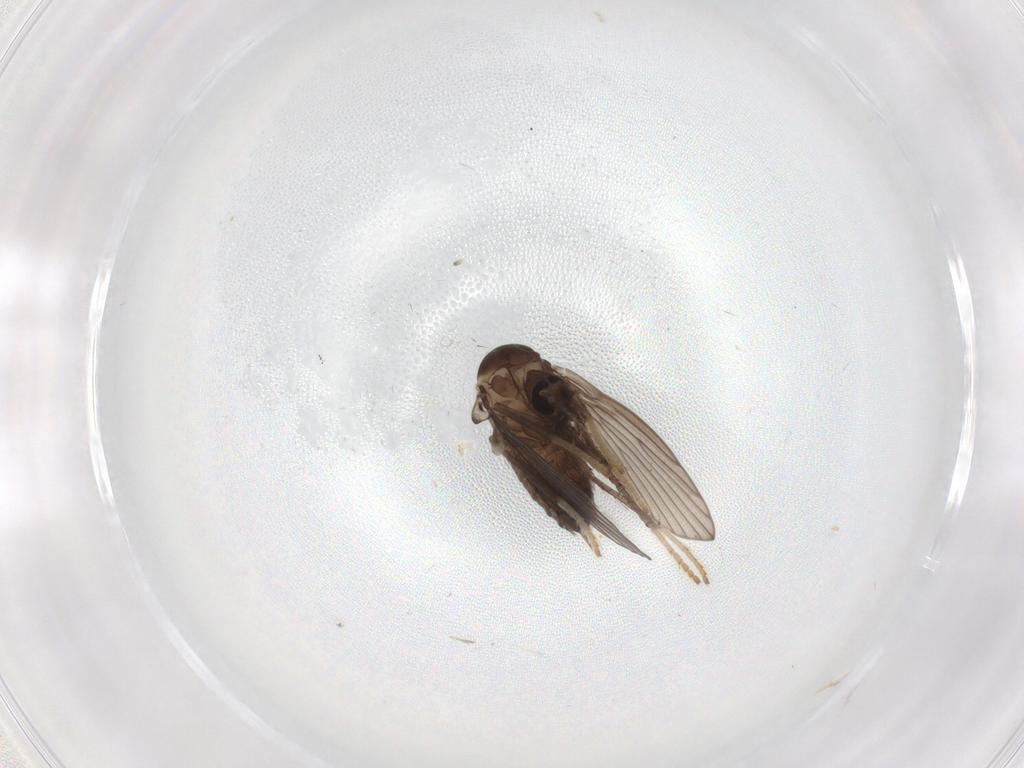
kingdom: Animalia
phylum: Arthropoda
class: Insecta
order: Diptera
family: Psychodidae
